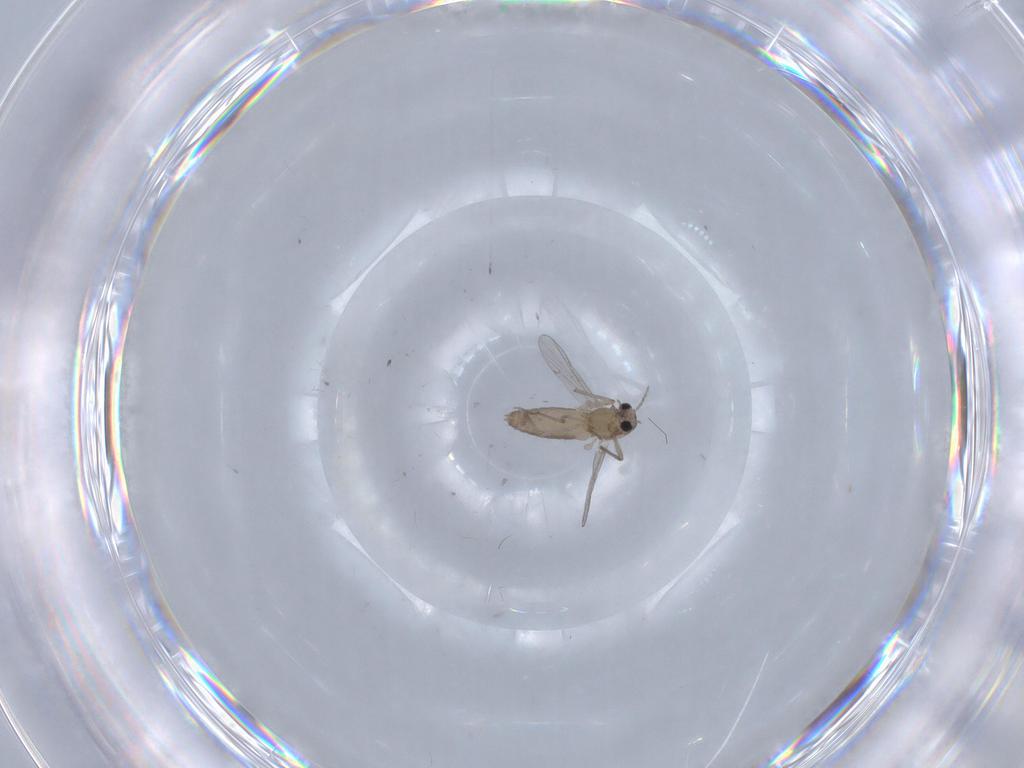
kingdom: Animalia
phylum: Arthropoda
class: Insecta
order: Diptera
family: Chironomidae
